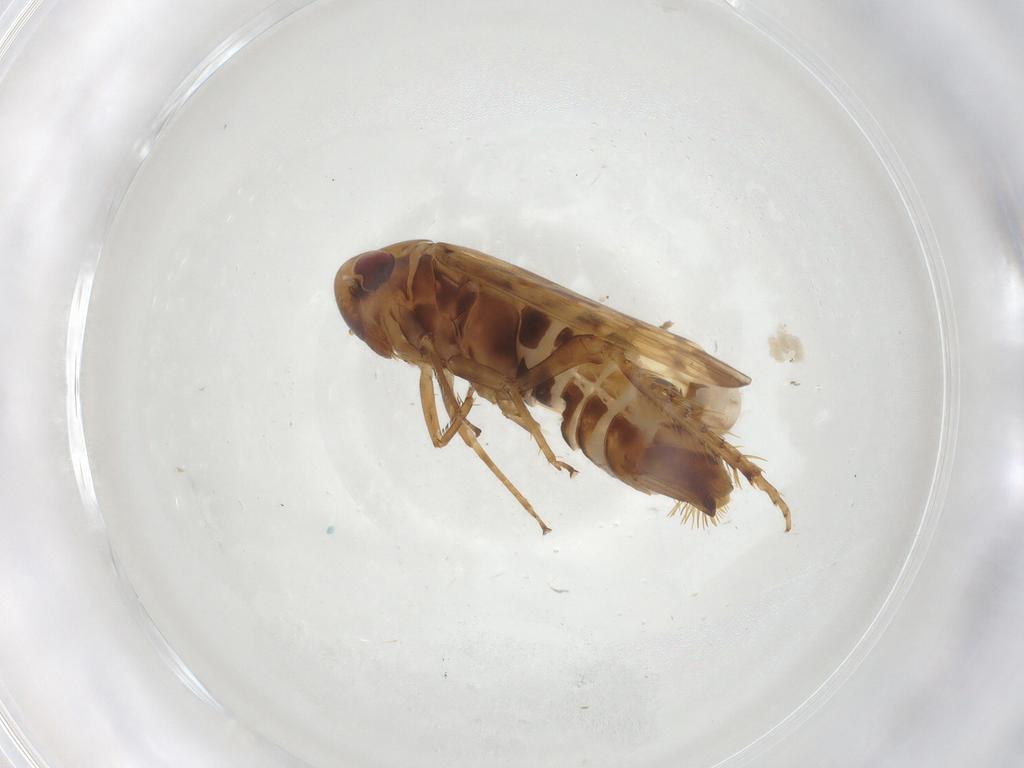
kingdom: Animalia
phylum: Arthropoda
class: Insecta
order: Hemiptera
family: Cicadellidae
